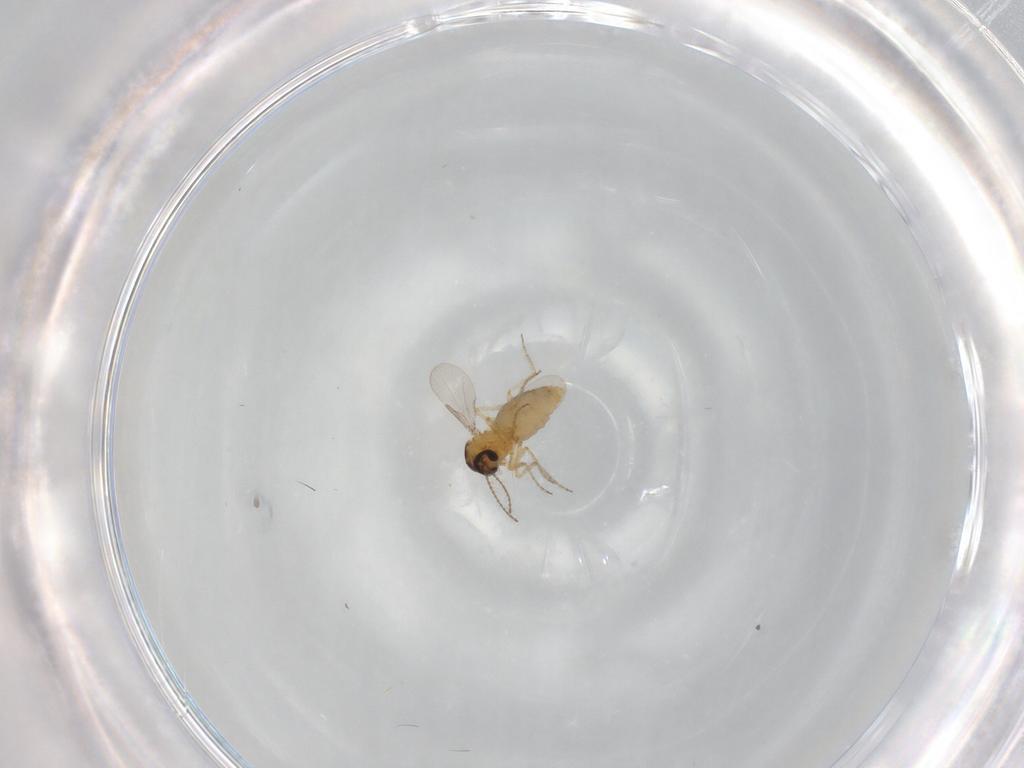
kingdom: Animalia
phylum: Arthropoda
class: Insecta
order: Diptera
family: Ceratopogonidae
